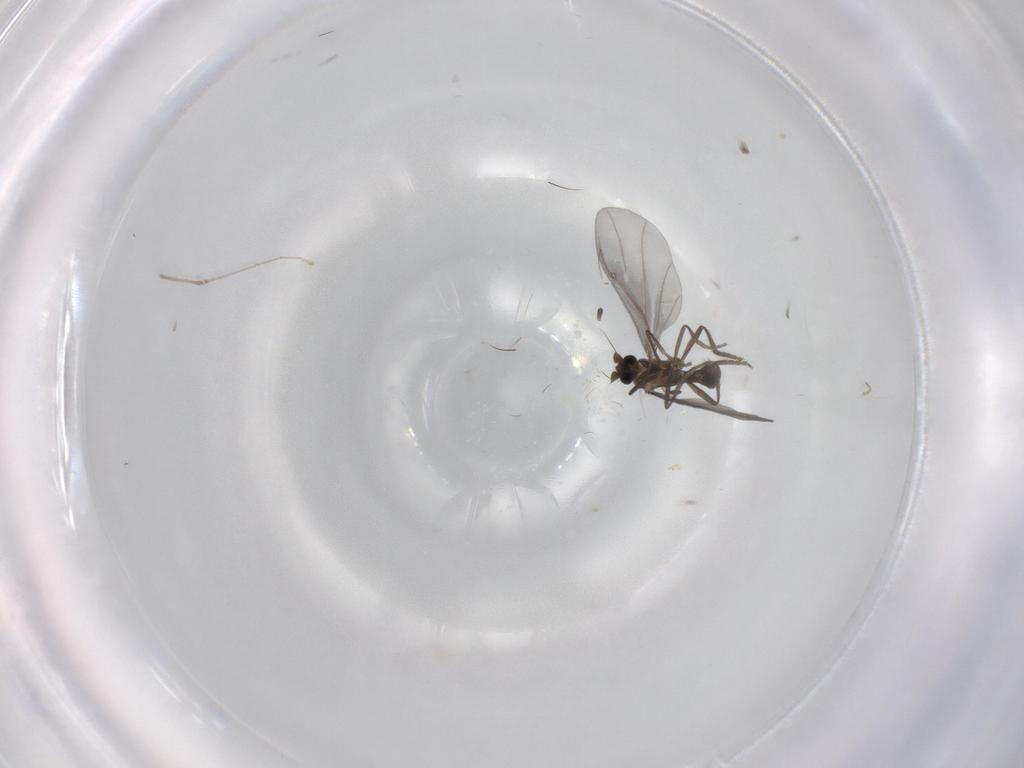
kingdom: Animalia
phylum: Arthropoda
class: Insecta
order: Diptera
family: Phoridae
